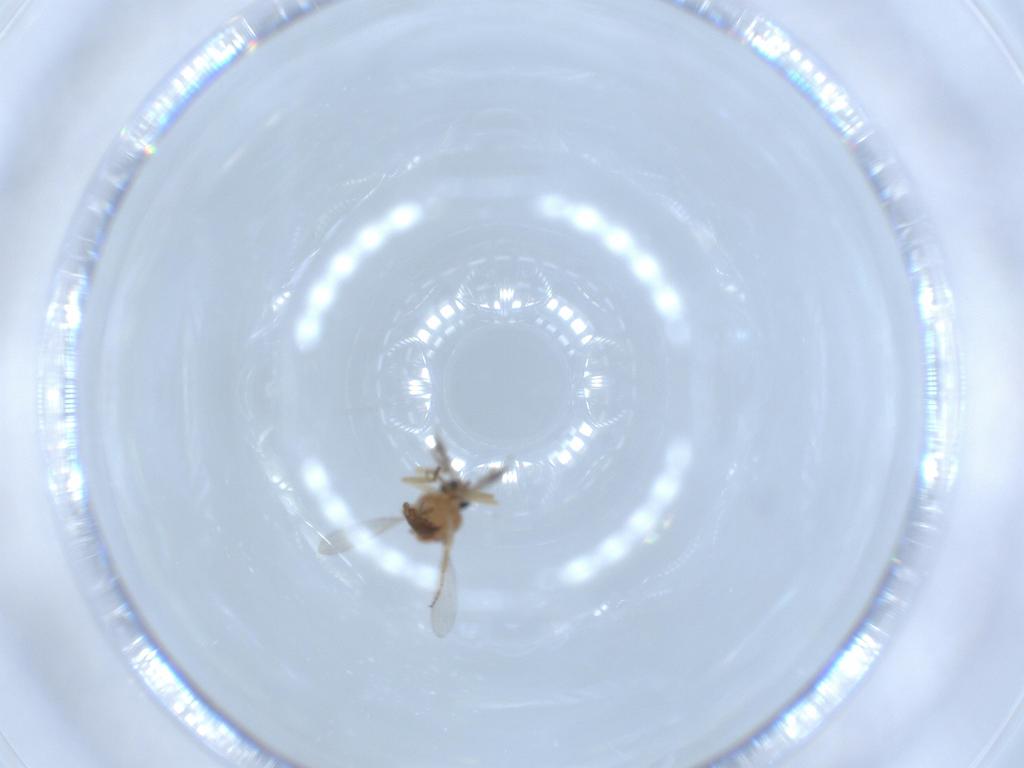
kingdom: Animalia
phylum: Arthropoda
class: Insecta
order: Diptera
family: Ceratopogonidae
